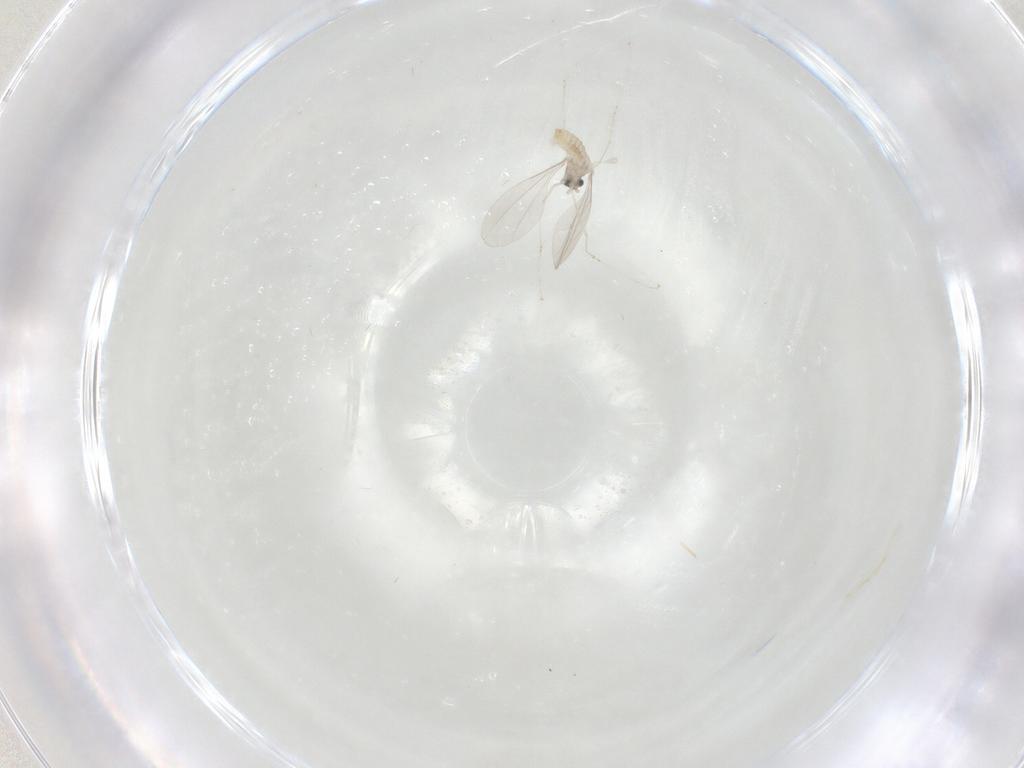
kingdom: Animalia
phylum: Arthropoda
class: Insecta
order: Diptera
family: Cecidomyiidae
